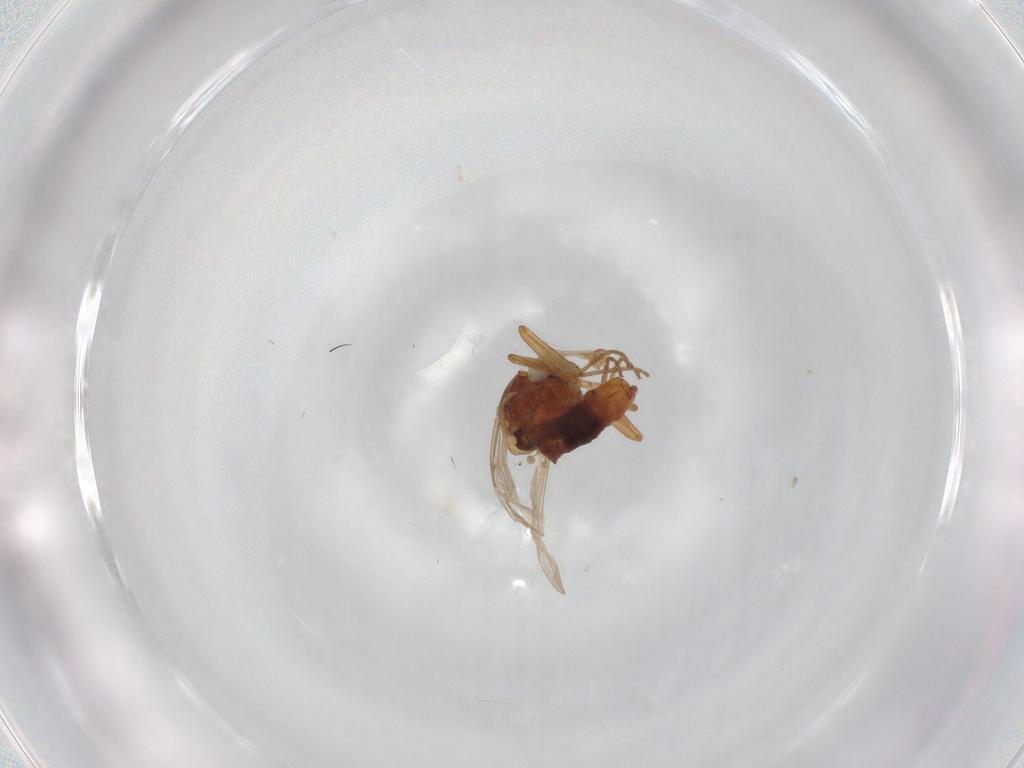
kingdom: Animalia
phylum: Arthropoda
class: Insecta
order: Diptera
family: Ceratopogonidae
